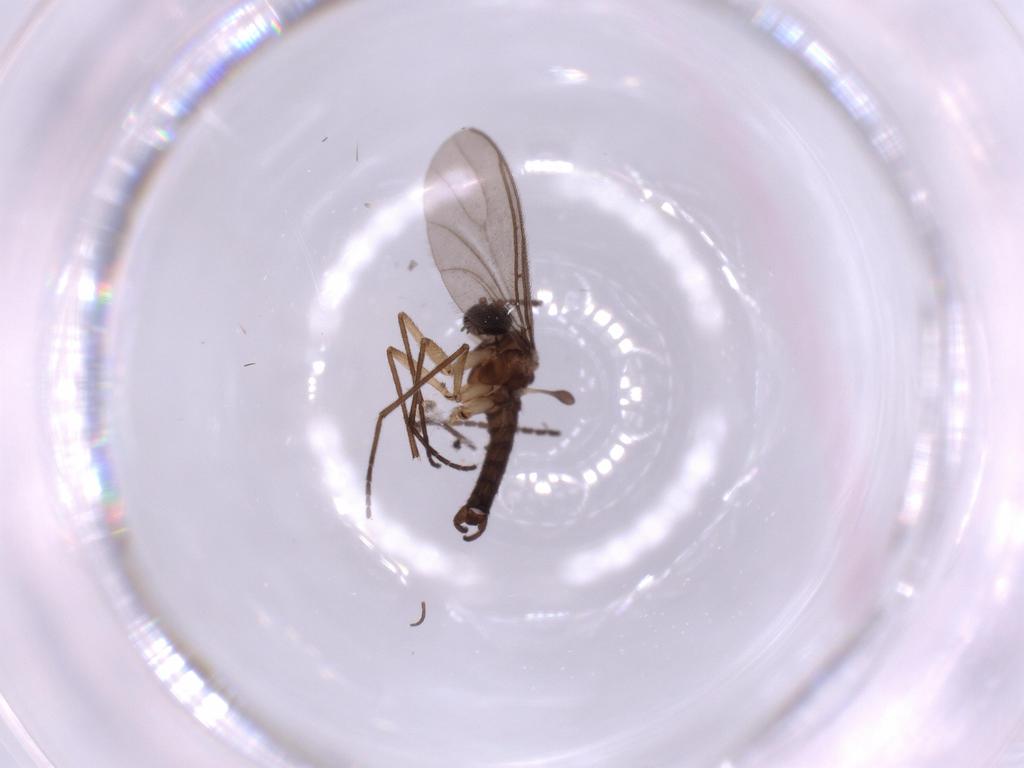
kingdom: Animalia
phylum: Arthropoda
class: Insecta
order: Diptera
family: Sciaridae
